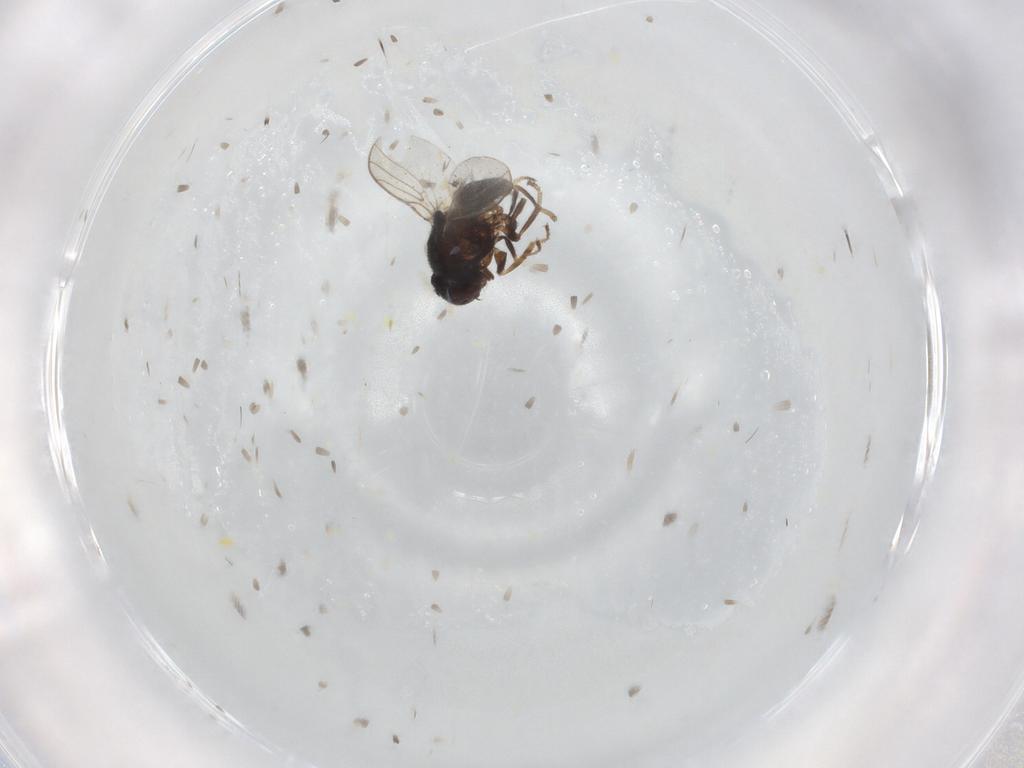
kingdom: Animalia
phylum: Arthropoda
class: Insecta
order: Diptera
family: Chloropidae
